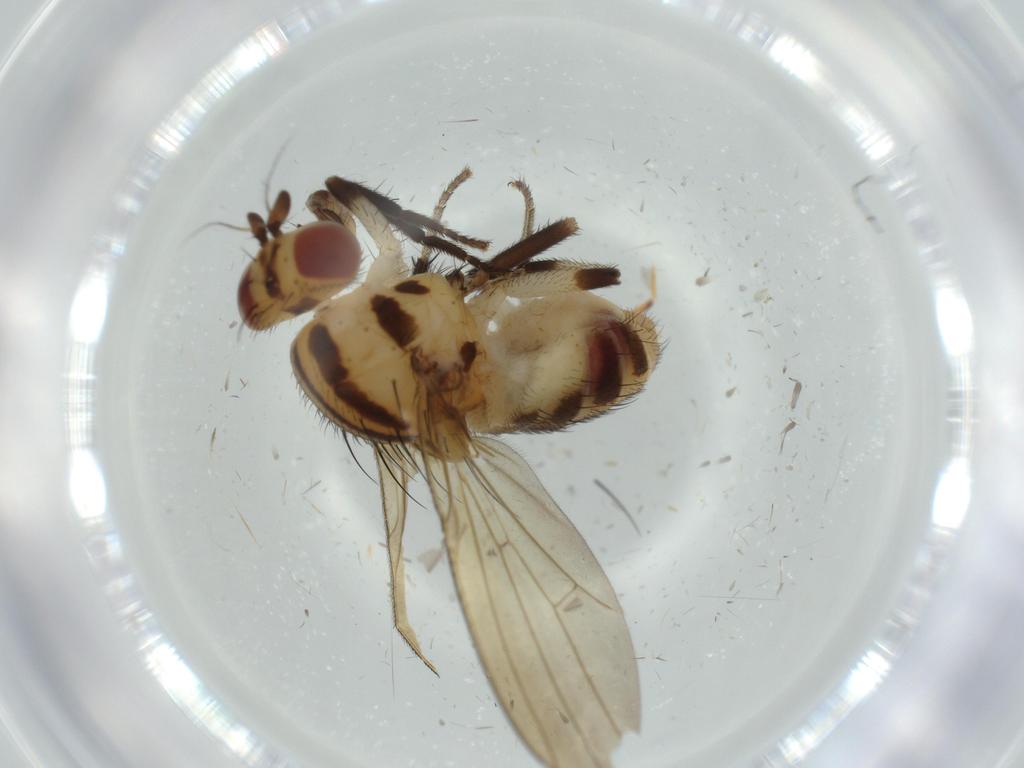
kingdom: Animalia
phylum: Arthropoda
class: Insecta
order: Diptera
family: Lauxaniidae
